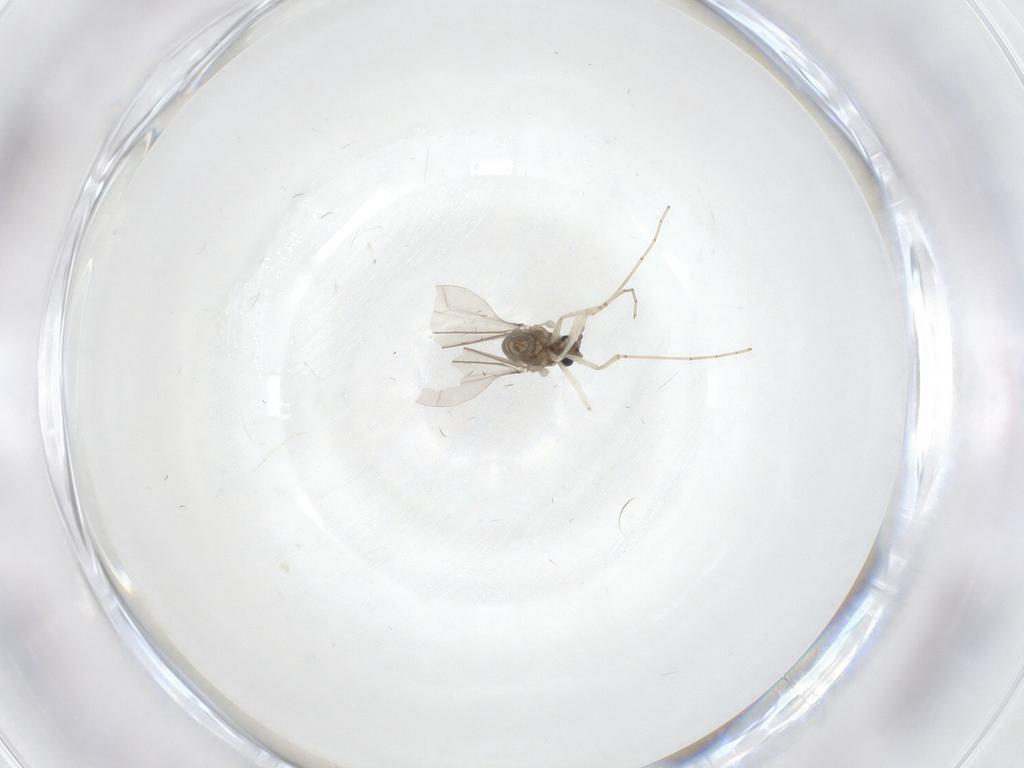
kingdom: Animalia
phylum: Arthropoda
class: Insecta
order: Diptera
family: Cecidomyiidae
